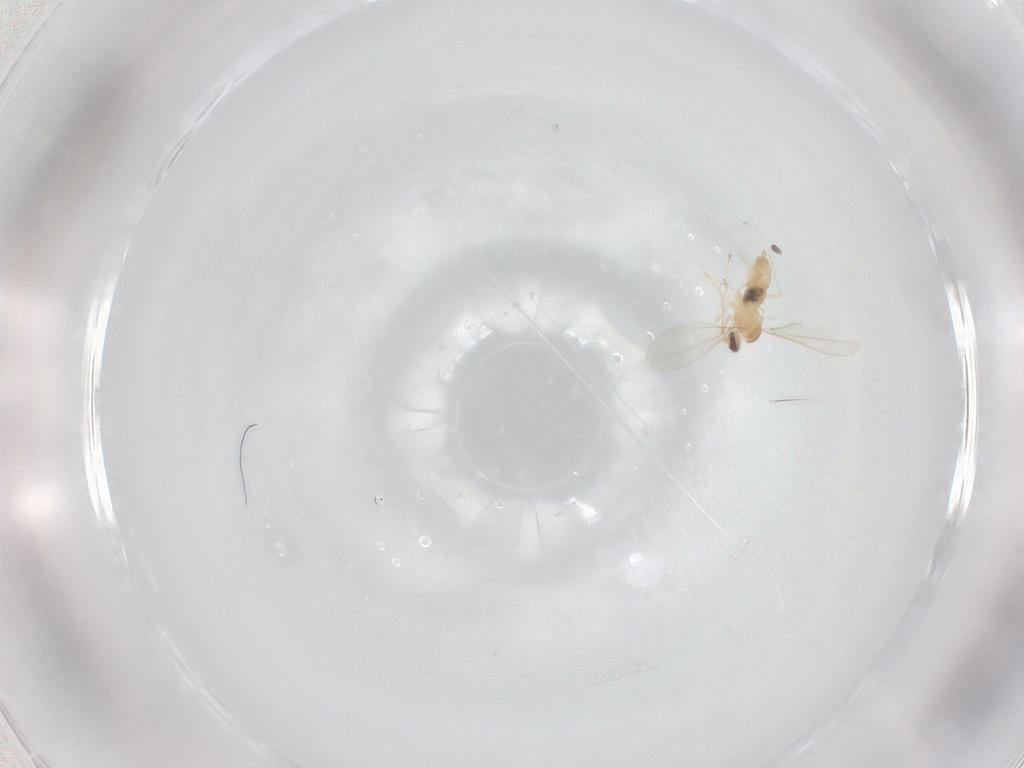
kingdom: Animalia
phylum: Arthropoda
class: Insecta
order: Diptera
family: Cecidomyiidae
